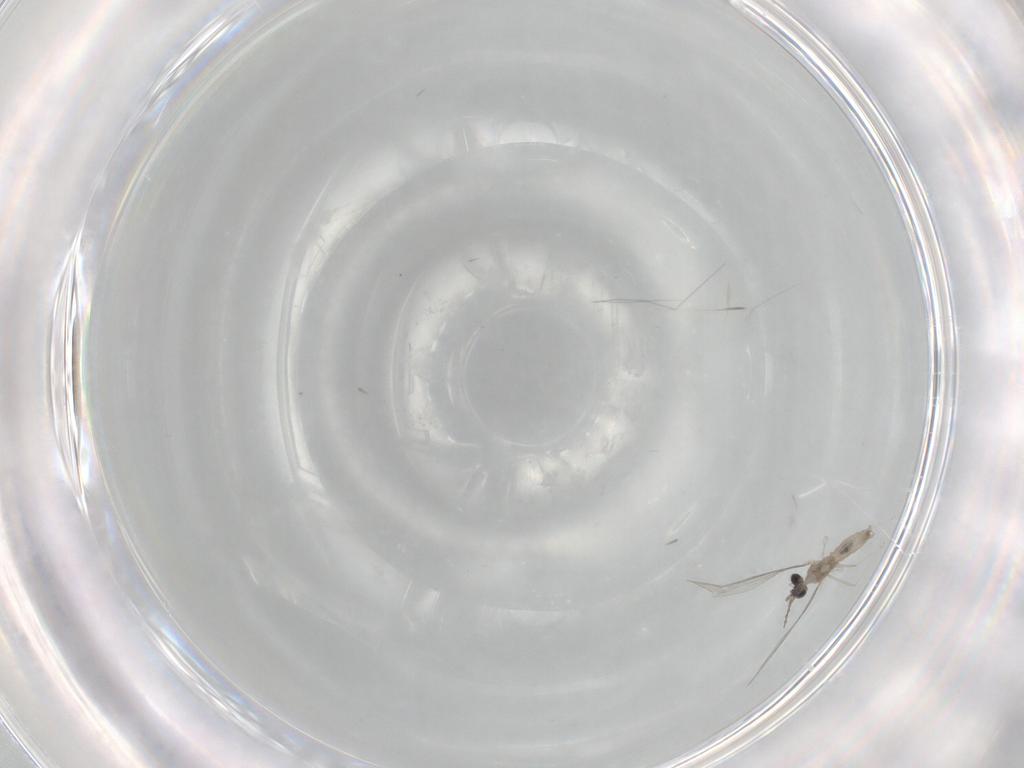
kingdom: Animalia
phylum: Arthropoda
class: Insecta
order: Diptera
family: Cecidomyiidae
